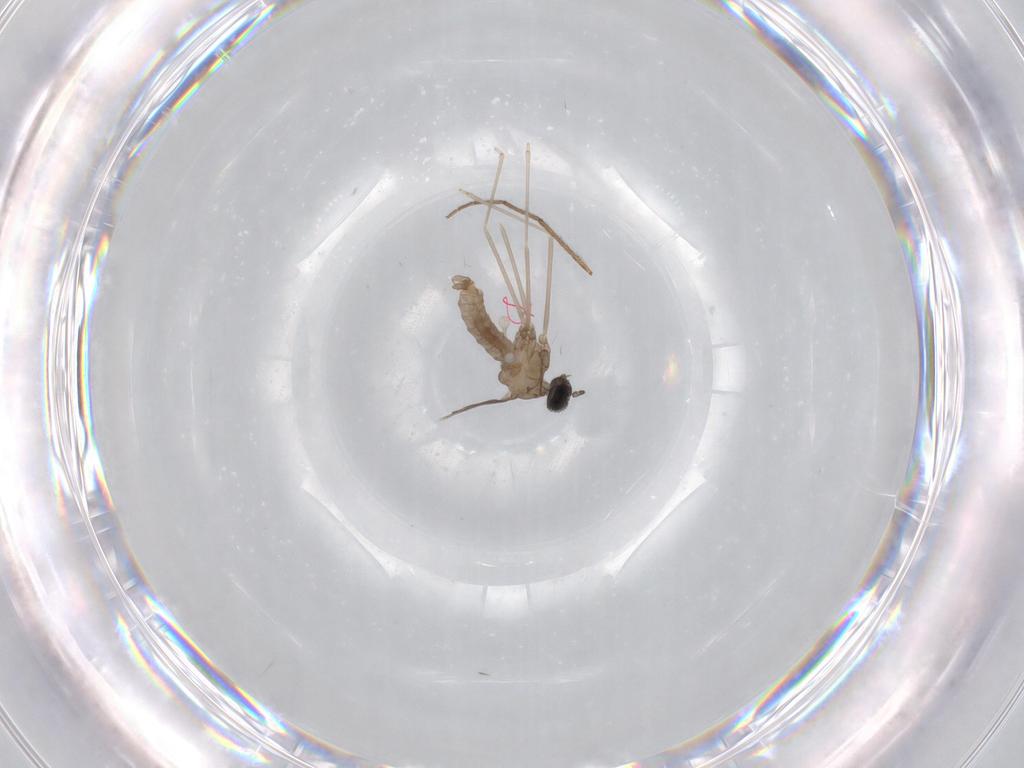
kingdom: Animalia
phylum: Arthropoda
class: Insecta
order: Diptera
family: Chironomidae
